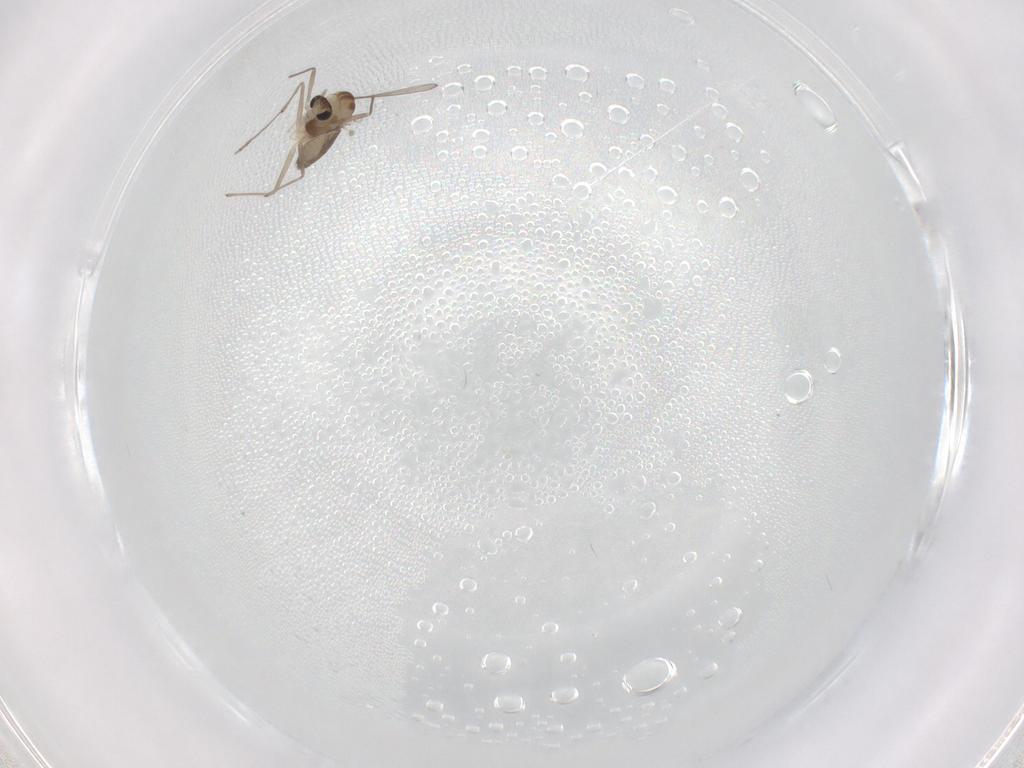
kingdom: Animalia
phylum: Arthropoda
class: Insecta
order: Diptera
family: Chironomidae
